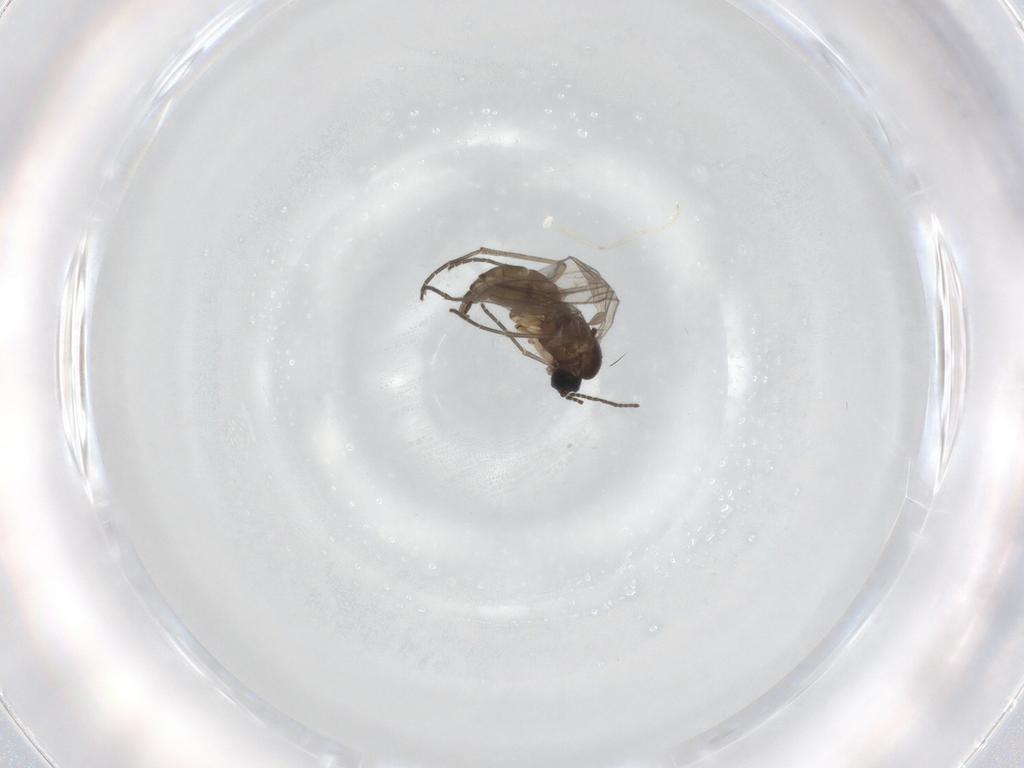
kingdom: Animalia
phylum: Arthropoda
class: Insecta
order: Diptera
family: Sciaridae
